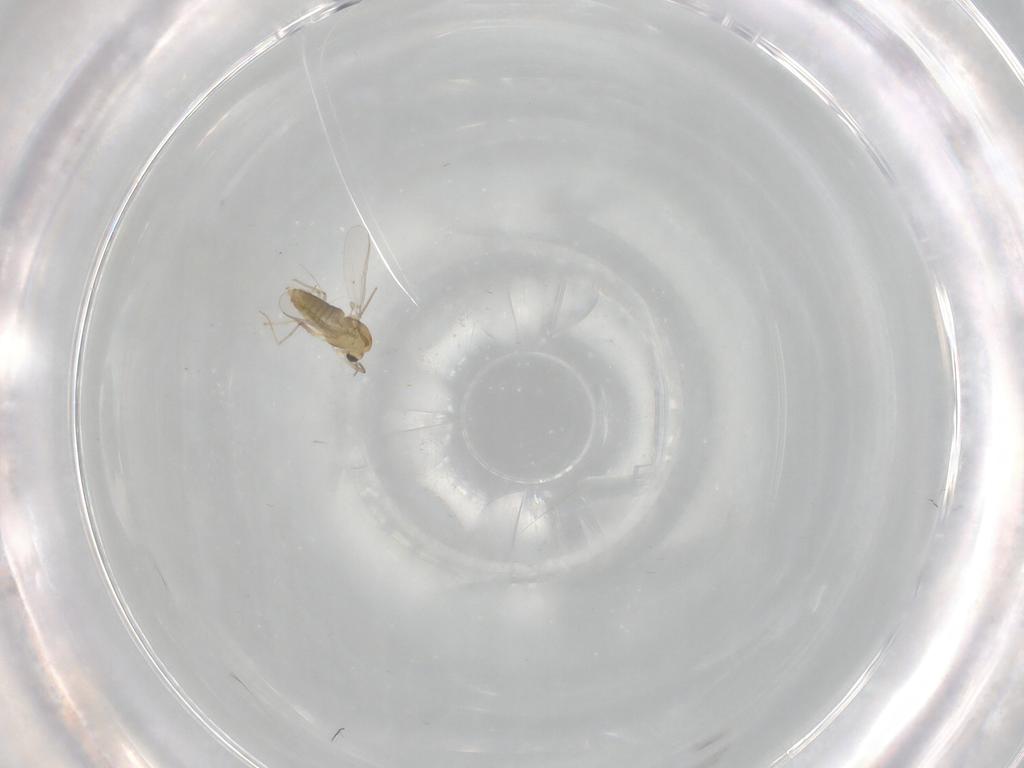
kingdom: Animalia
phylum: Arthropoda
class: Insecta
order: Diptera
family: Chironomidae
